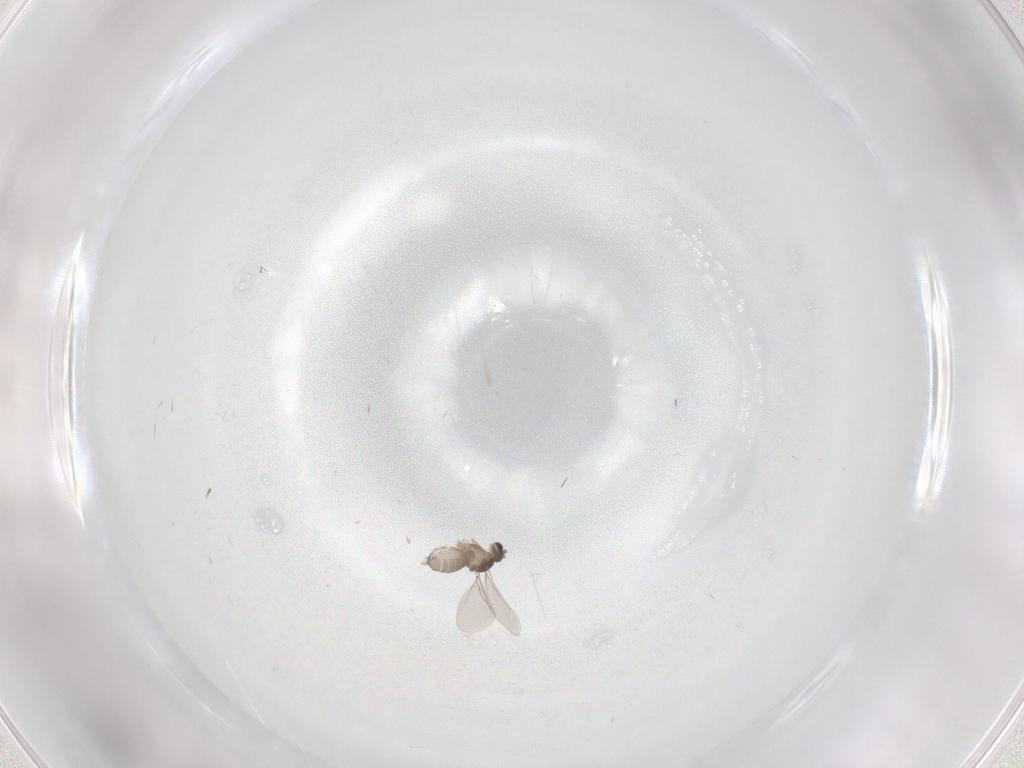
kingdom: Animalia
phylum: Arthropoda
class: Insecta
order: Diptera
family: Cecidomyiidae
